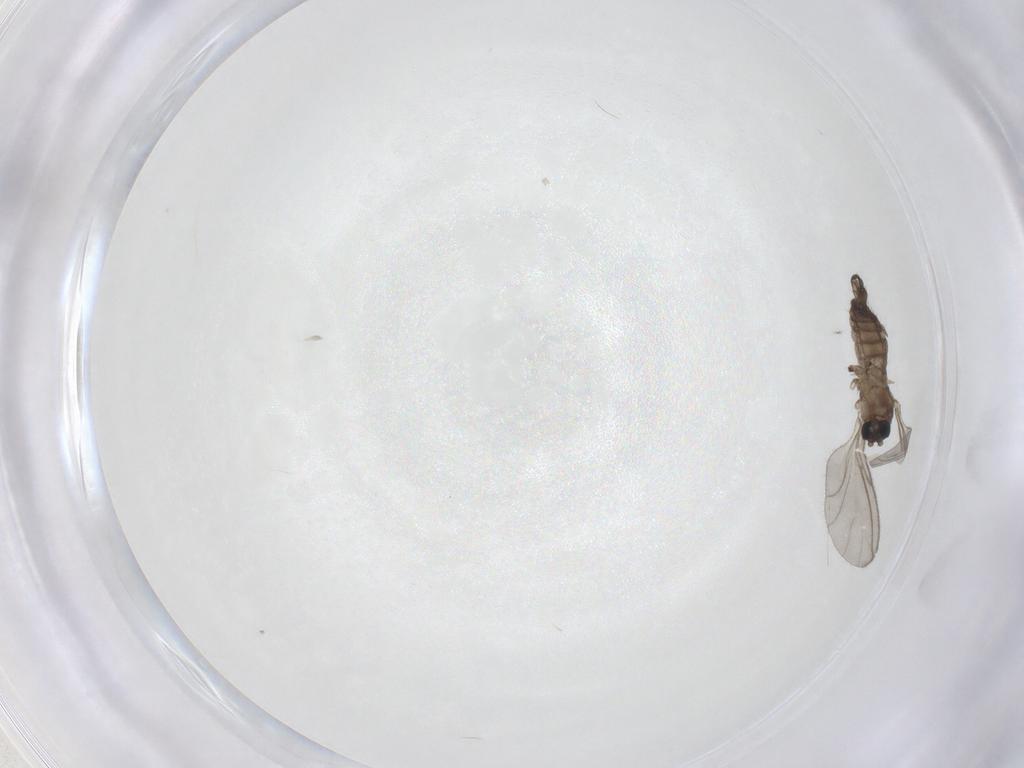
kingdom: Animalia
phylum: Arthropoda
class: Insecta
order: Diptera
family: Sciaridae
